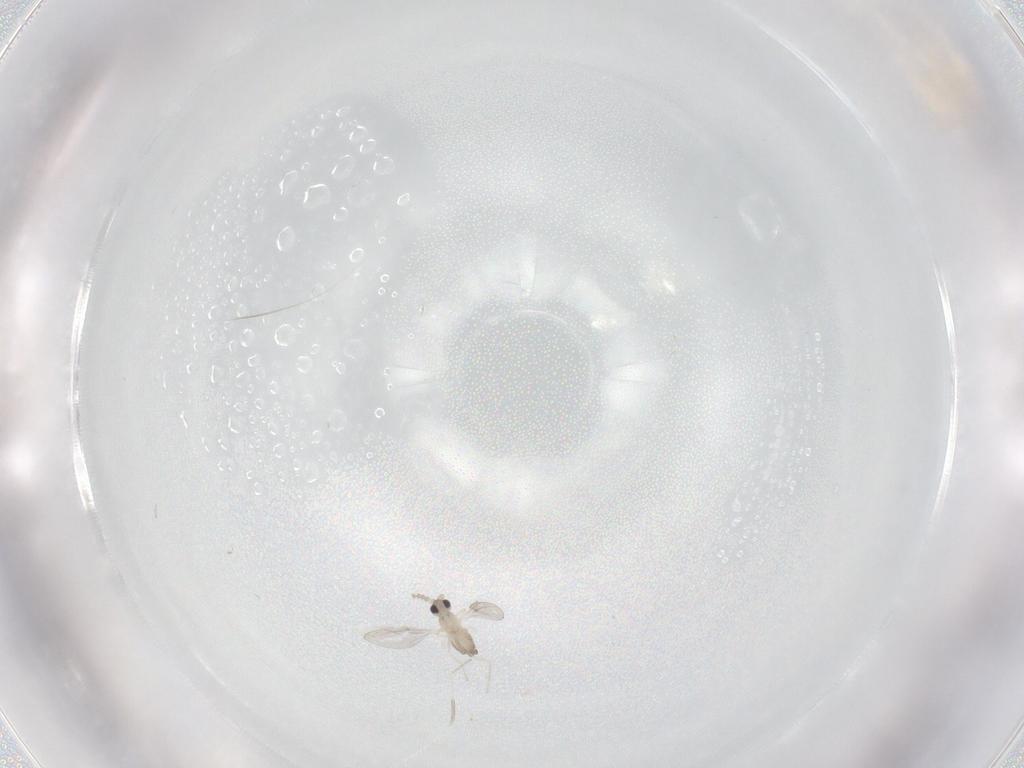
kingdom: Animalia
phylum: Arthropoda
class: Insecta
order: Diptera
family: Cecidomyiidae
